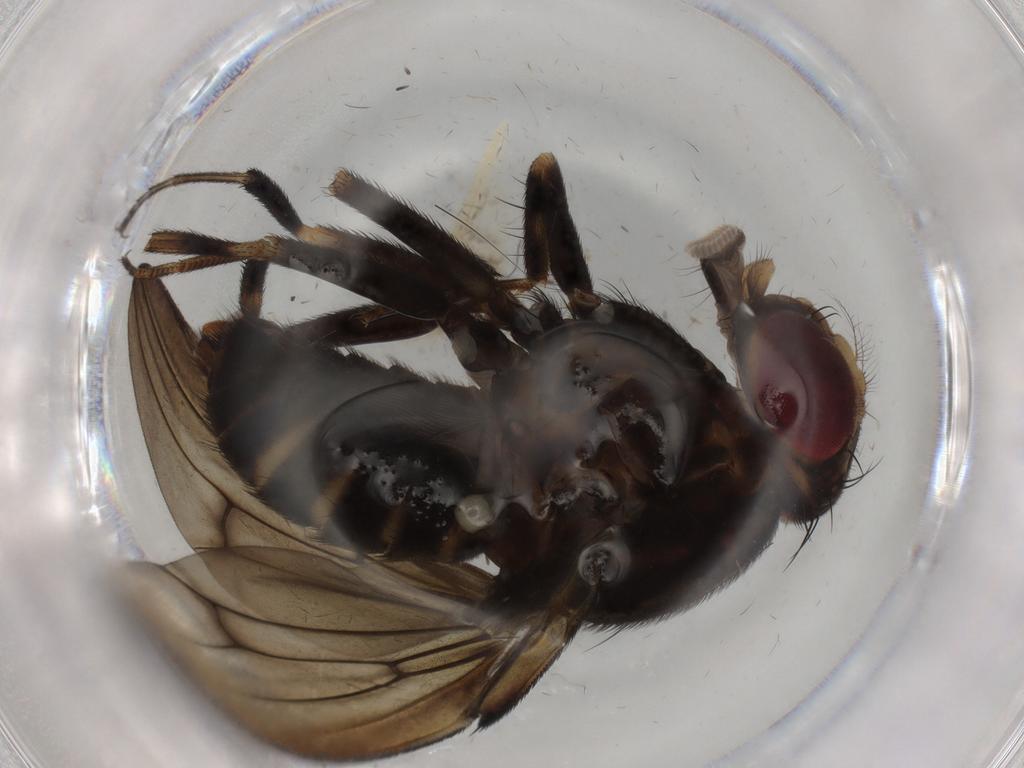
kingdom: Animalia
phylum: Arthropoda
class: Insecta
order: Diptera
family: Drosophilidae
